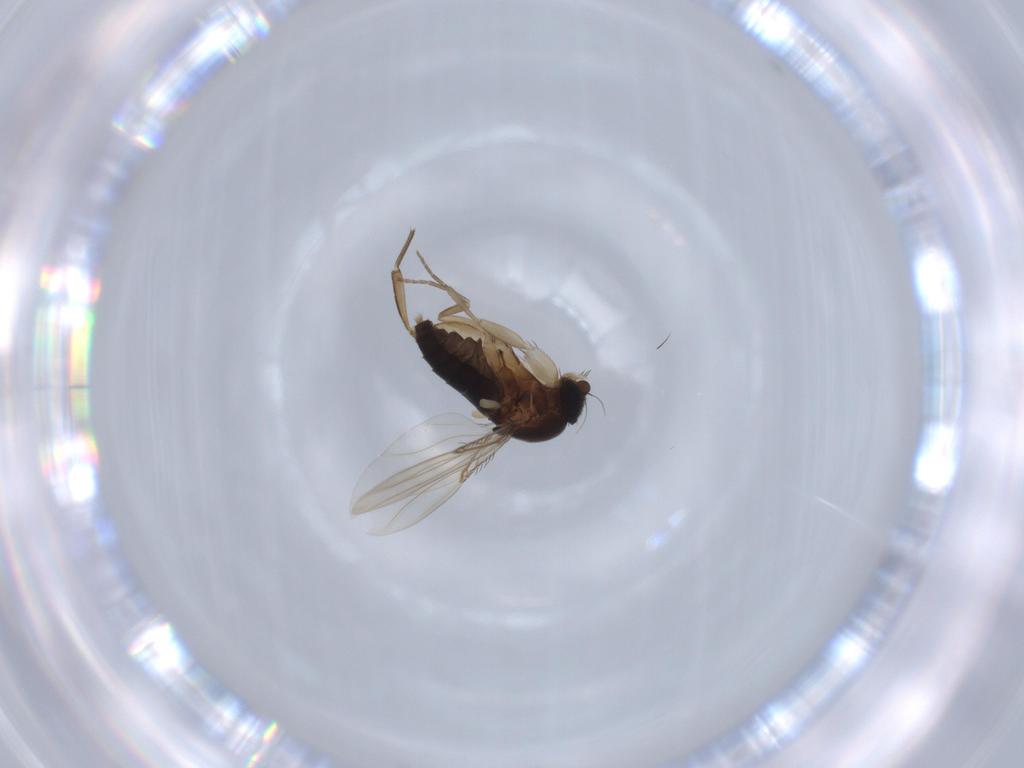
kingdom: Animalia
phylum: Arthropoda
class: Insecta
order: Diptera
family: Phoridae
